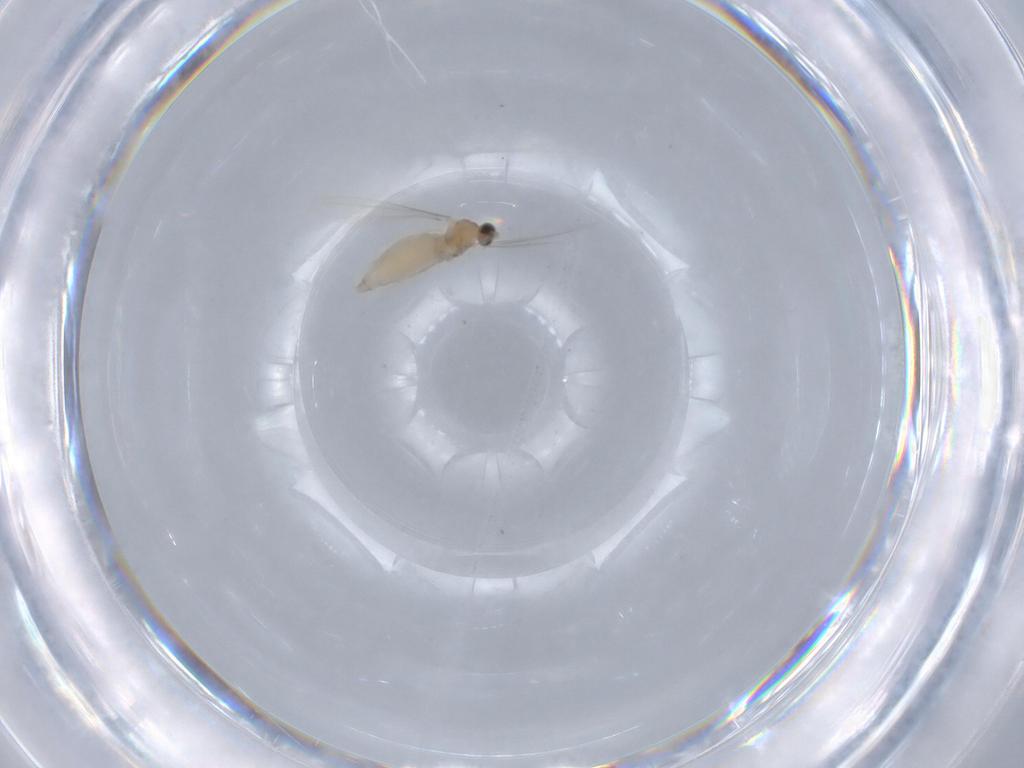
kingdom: Animalia
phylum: Arthropoda
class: Insecta
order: Diptera
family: Cecidomyiidae
